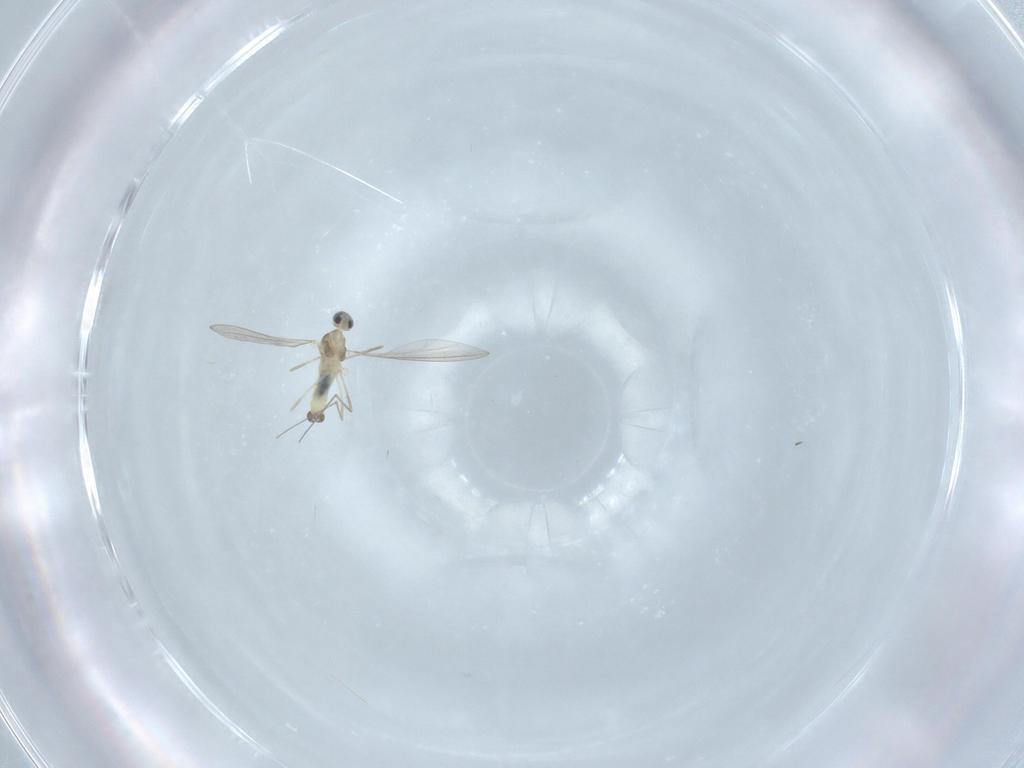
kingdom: Animalia
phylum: Arthropoda
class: Insecta
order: Diptera
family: Cecidomyiidae
